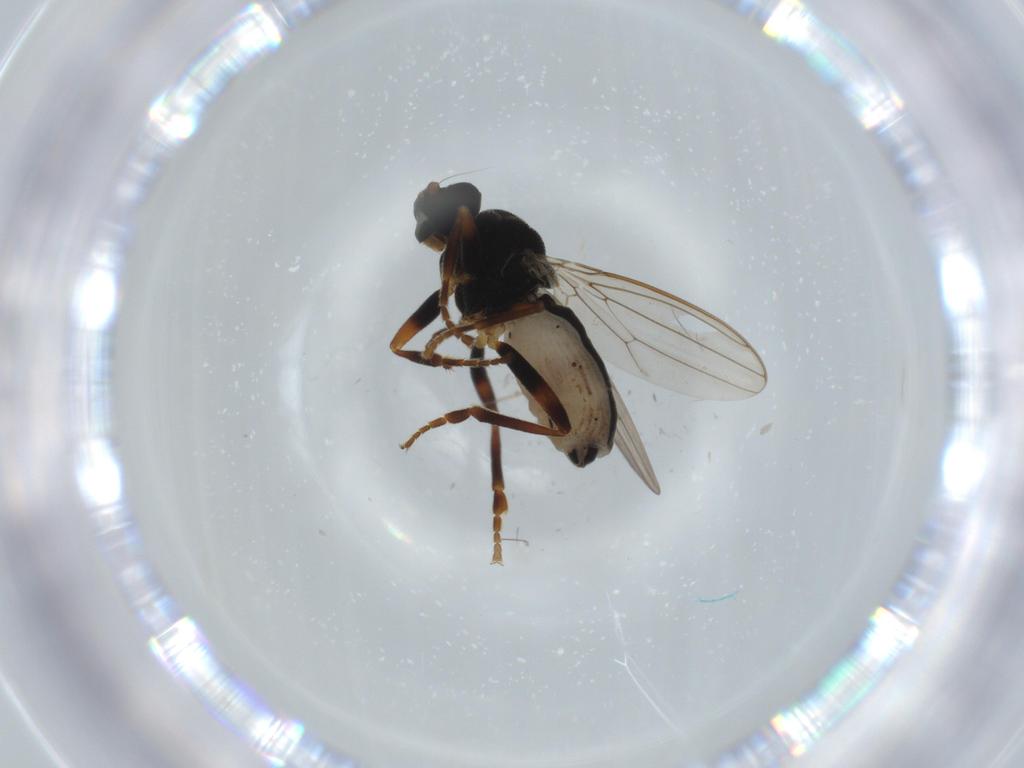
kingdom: Animalia
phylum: Arthropoda
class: Insecta
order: Diptera
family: Sphaeroceridae
